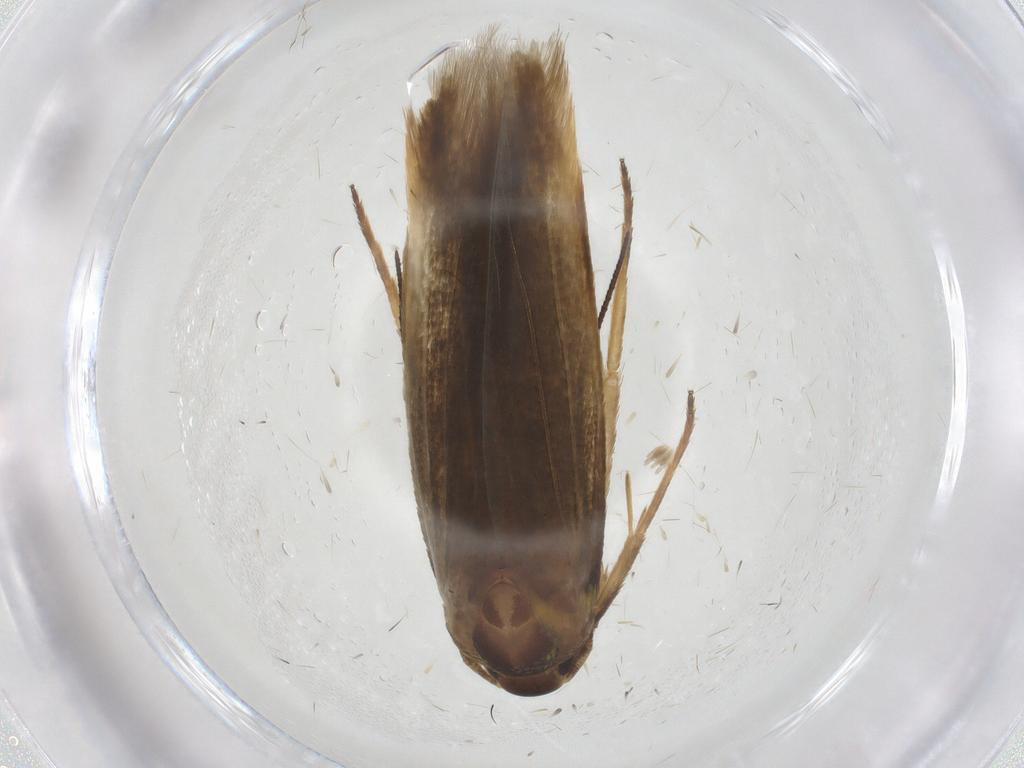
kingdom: Animalia
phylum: Arthropoda
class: Insecta
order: Lepidoptera
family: Stathmopodidae
